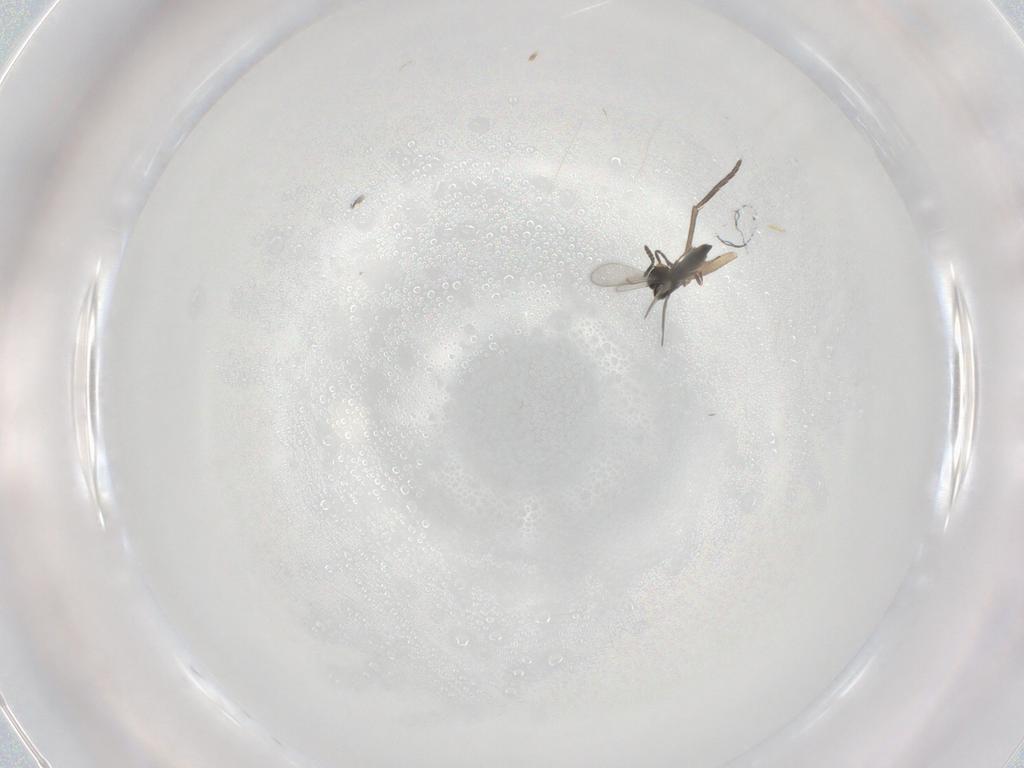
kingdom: Animalia
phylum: Arthropoda
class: Insecta
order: Hymenoptera
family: Scelionidae
